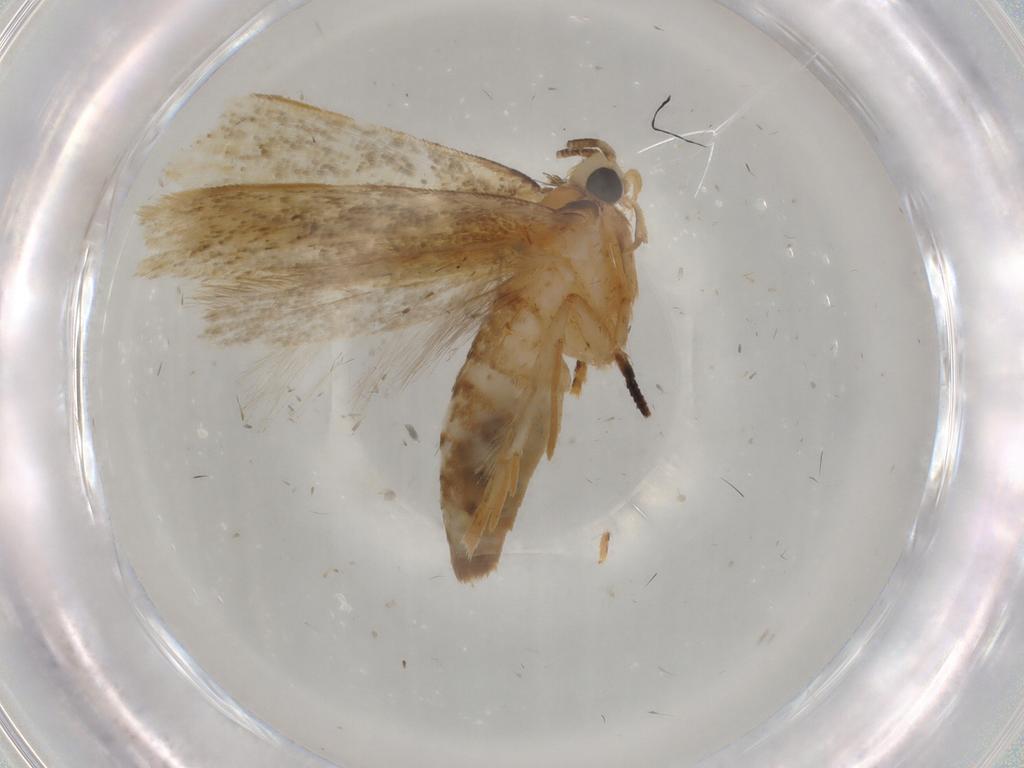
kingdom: Animalia
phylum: Arthropoda
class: Insecta
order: Lepidoptera
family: Tineidae
